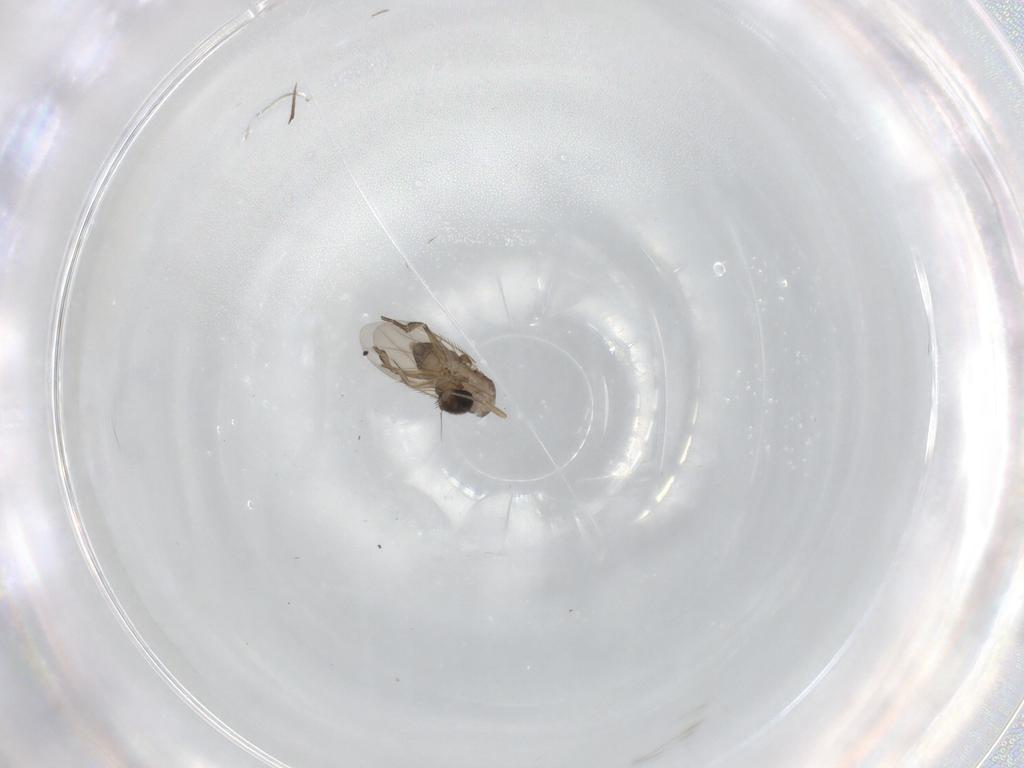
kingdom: Animalia
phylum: Arthropoda
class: Insecta
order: Diptera
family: Phoridae
